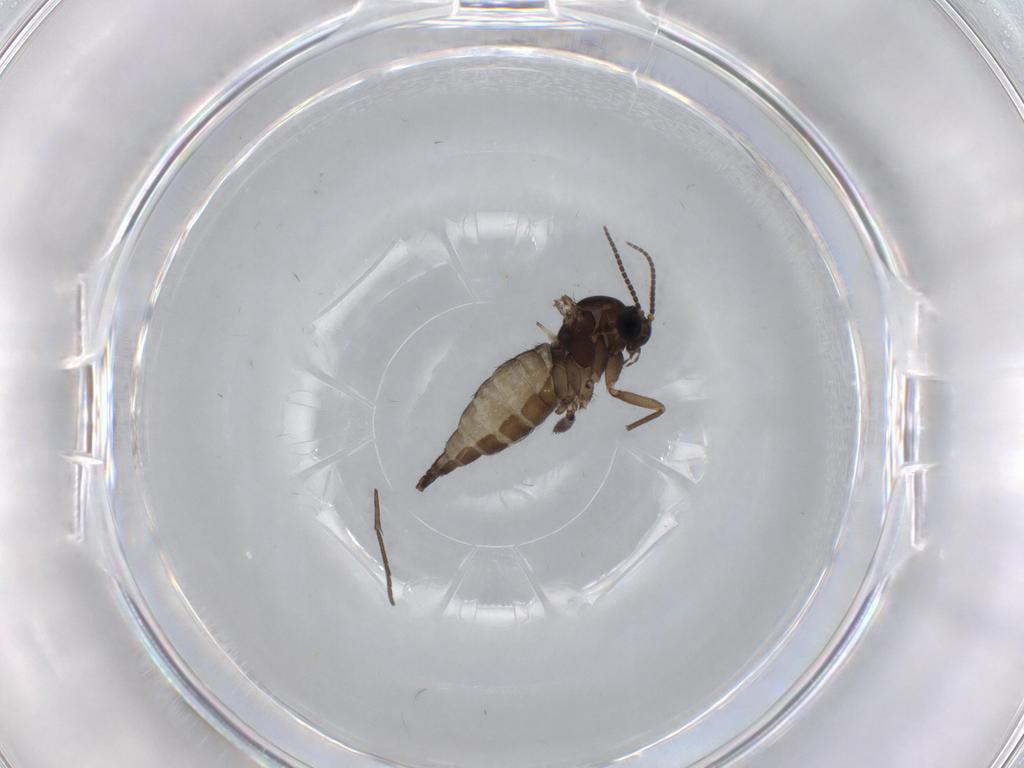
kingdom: Animalia
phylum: Arthropoda
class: Insecta
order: Diptera
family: Sciaridae
